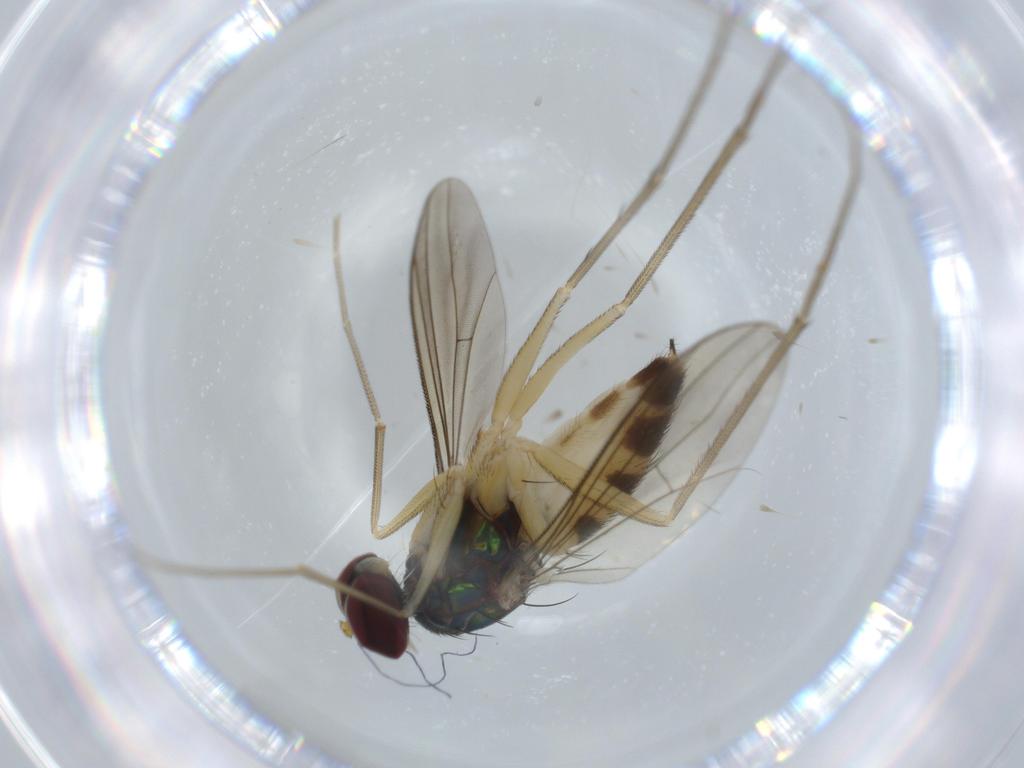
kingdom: Animalia
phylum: Arthropoda
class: Insecta
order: Diptera
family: Dolichopodidae
